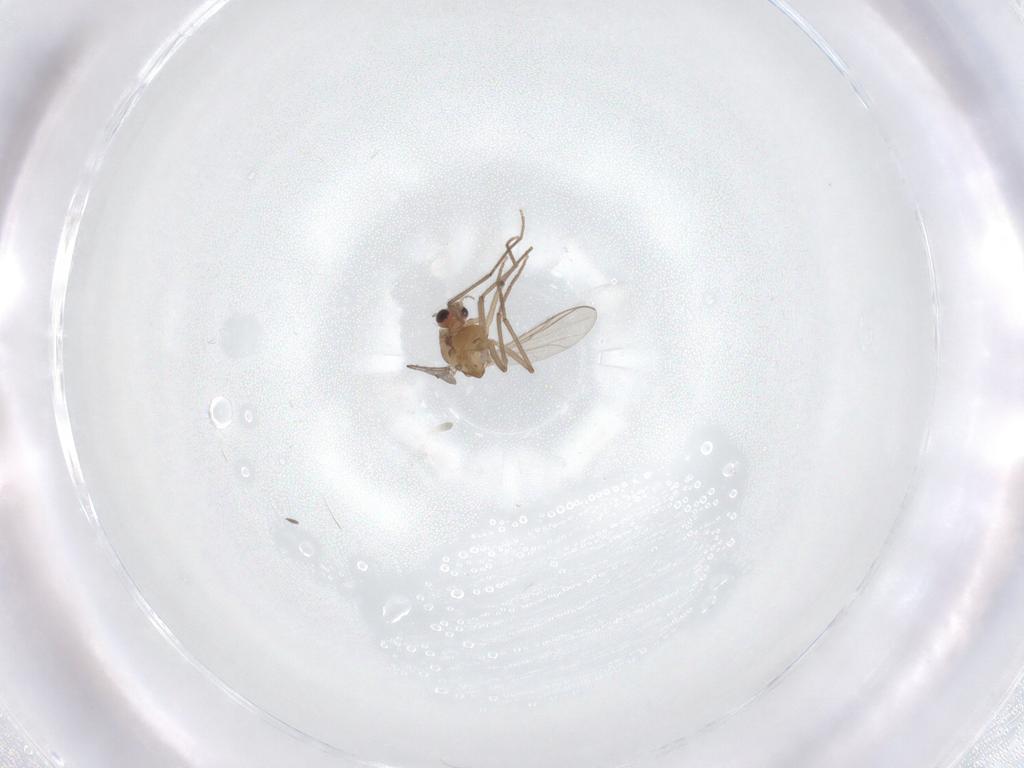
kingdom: Animalia
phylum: Arthropoda
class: Insecta
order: Diptera
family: Chironomidae
